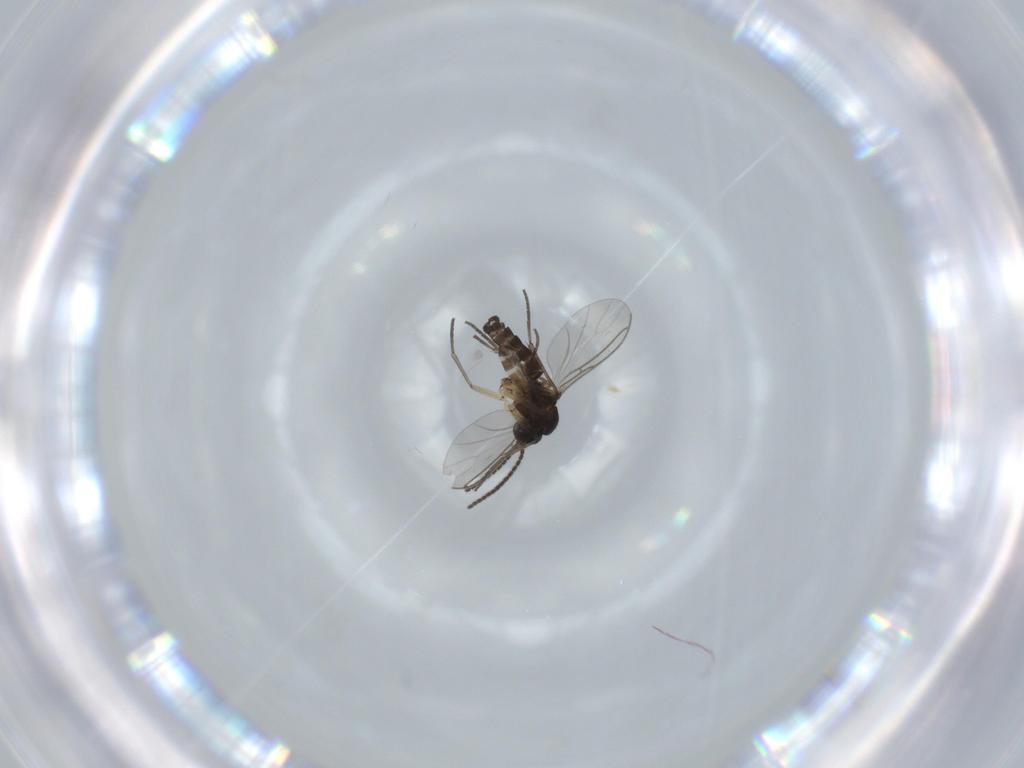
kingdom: Animalia
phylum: Arthropoda
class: Insecta
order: Diptera
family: Sciaridae
